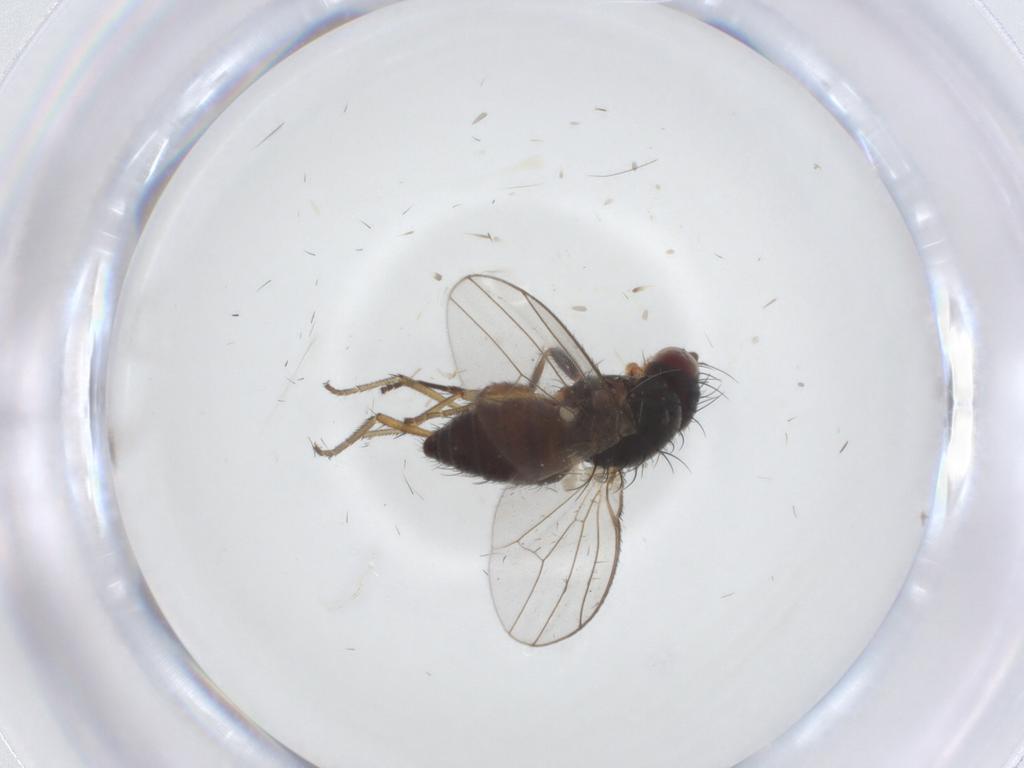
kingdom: Animalia
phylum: Arthropoda
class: Insecta
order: Diptera
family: Heleomyzidae
